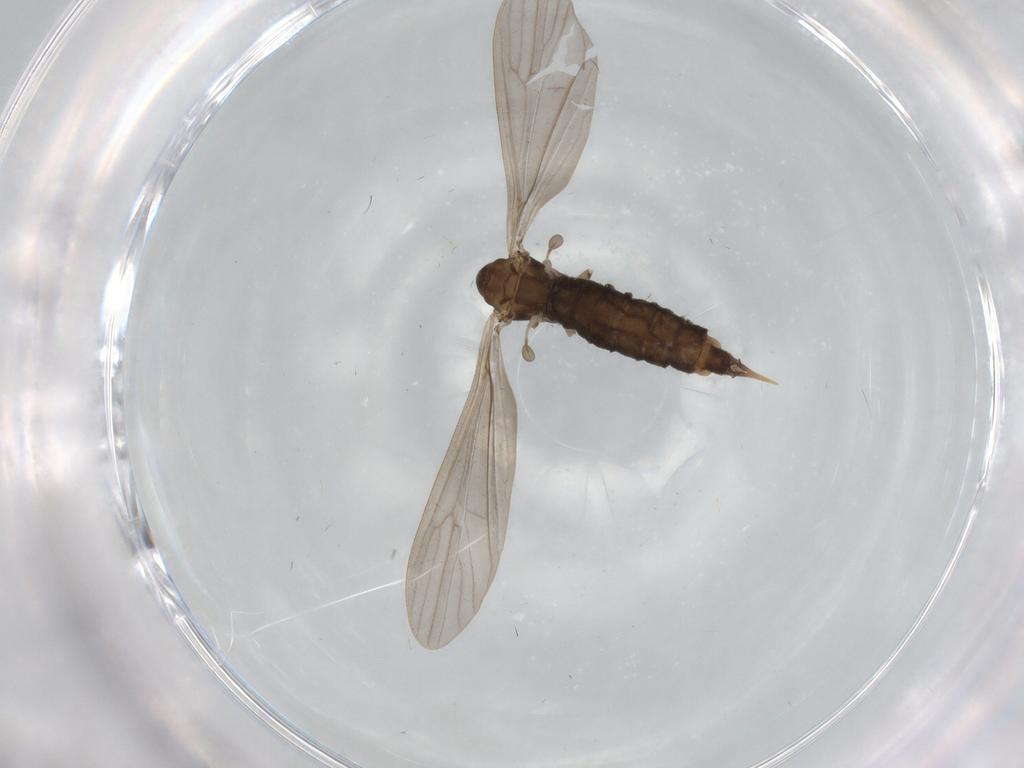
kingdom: Animalia
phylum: Arthropoda
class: Insecta
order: Diptera
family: Limoniidae
